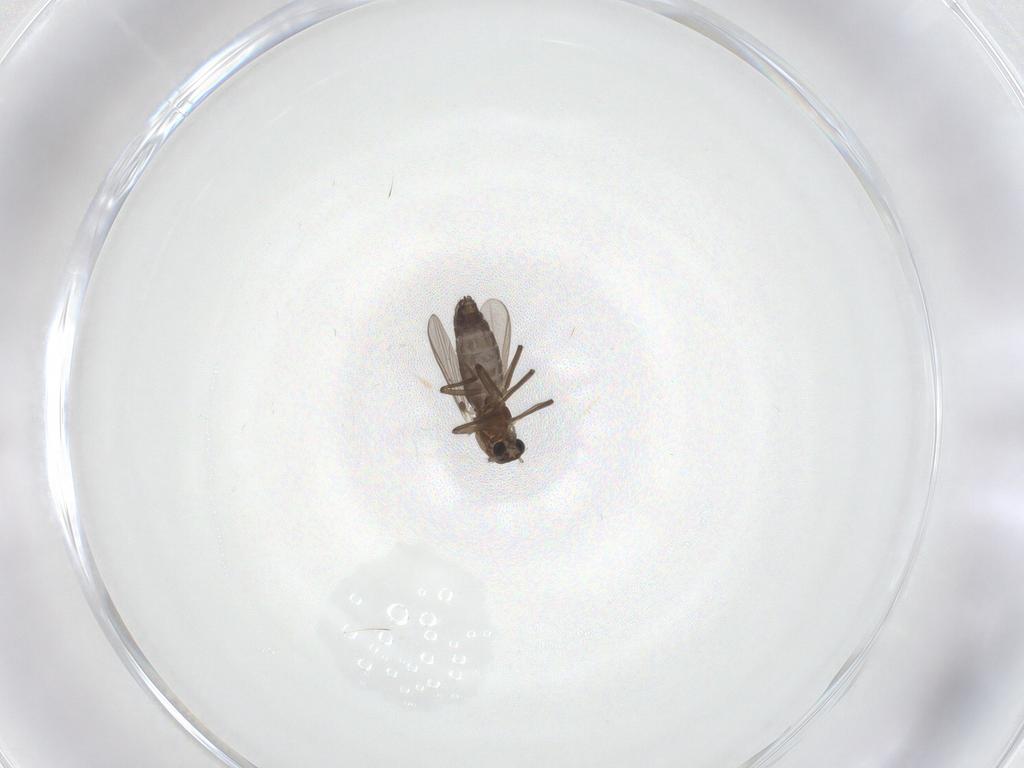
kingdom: Animalia
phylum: Arthropoda
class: Insecta
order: Diptera
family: Chironomidae
